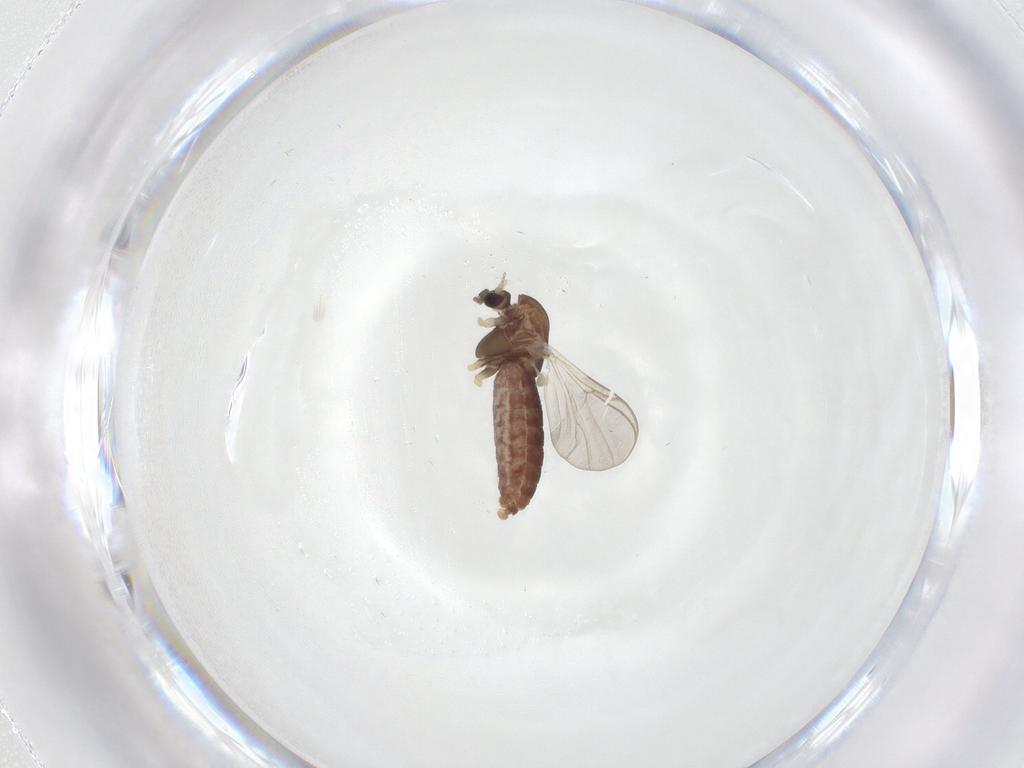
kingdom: Animalia
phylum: Arthropoda
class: Insecta
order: Diptera
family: Chironomidae
